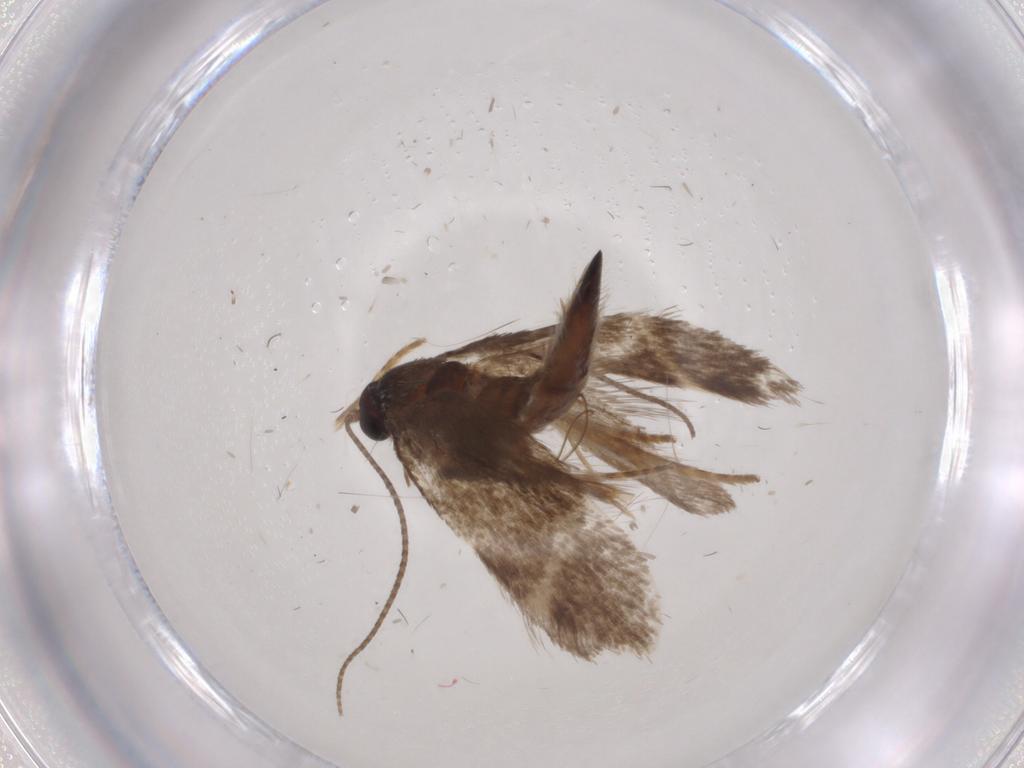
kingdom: Animalia
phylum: Arthropoda
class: Insecta
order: Lepidoptera
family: Adelidae
